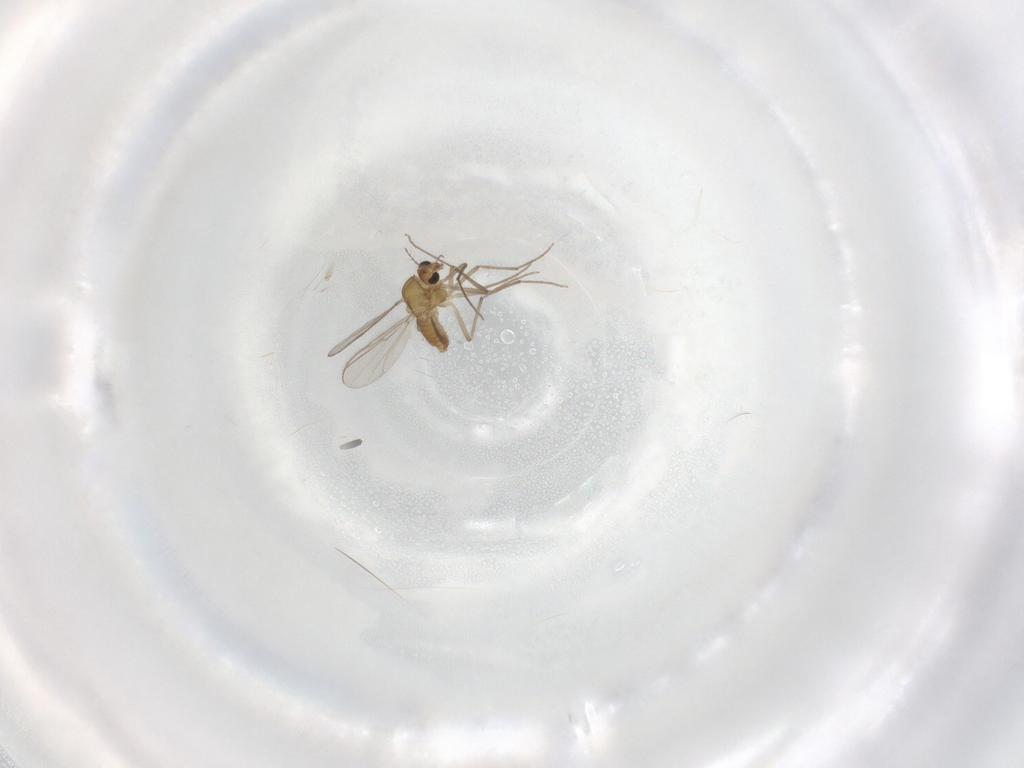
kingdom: Animalia
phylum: Arthropoda
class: Insecta
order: Diptera
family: Chironomidae
